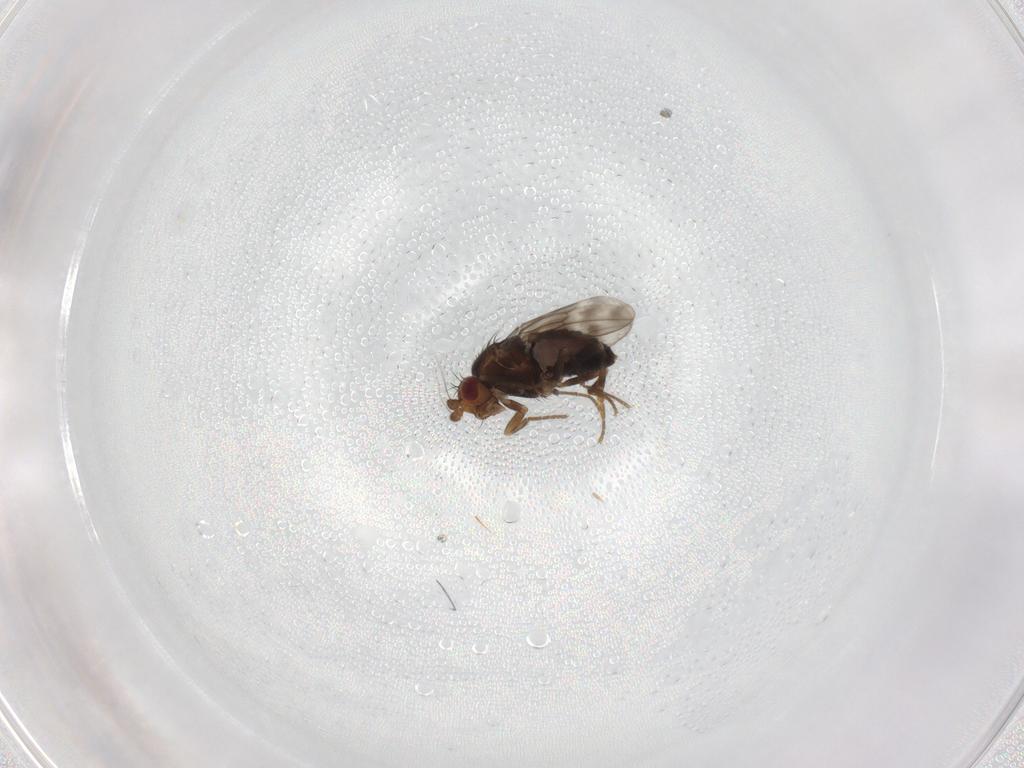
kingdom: Animalia
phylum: Arthropoda
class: Insecta
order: Diptera
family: Sphaeroceridae
